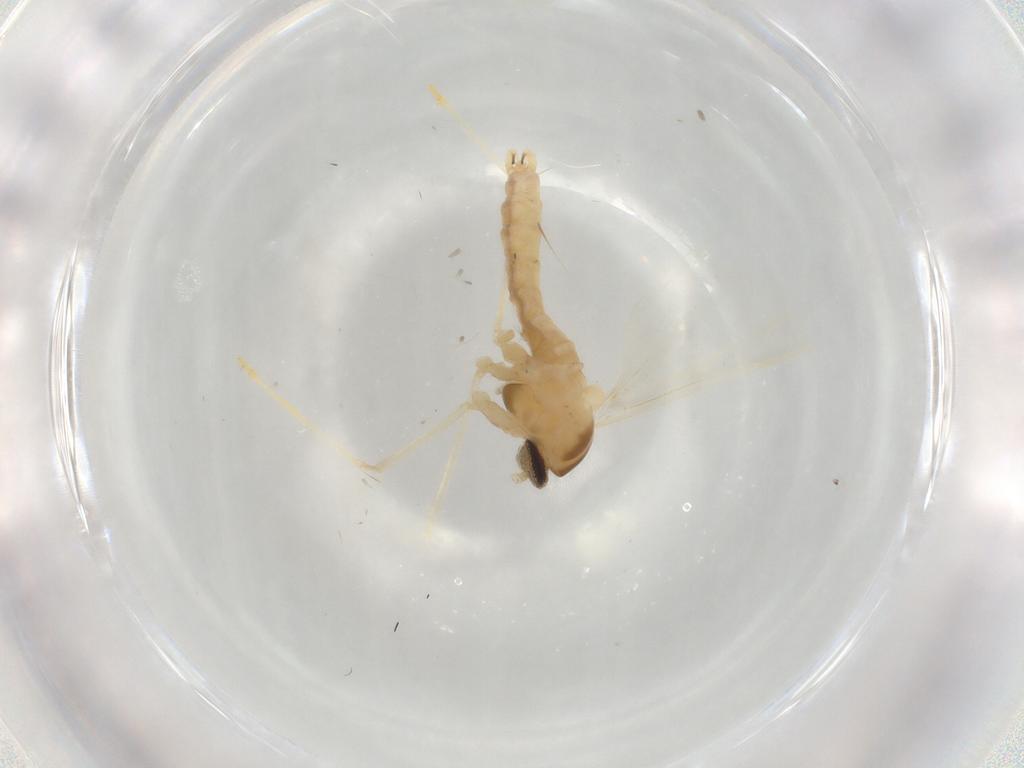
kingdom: Animalia
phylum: Arthropoda
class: Insecta
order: Diptera
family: Cecidomyiidae
